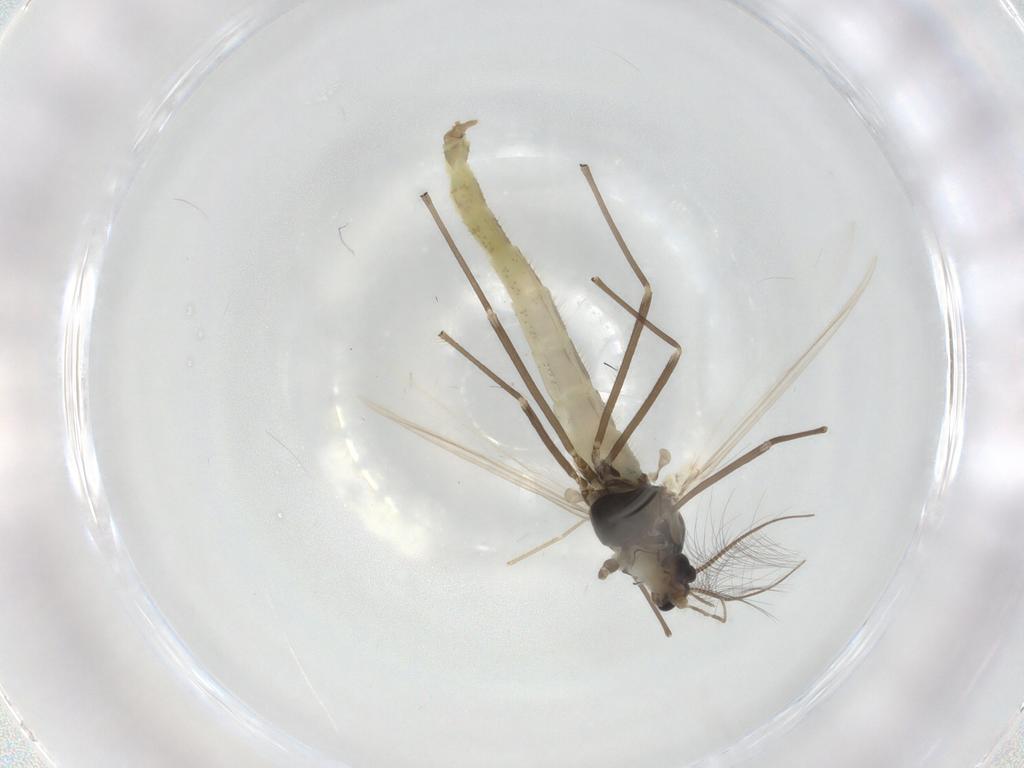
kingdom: Animalia
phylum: Arthropoda
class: Insecta
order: Diptera
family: Chironomidae
